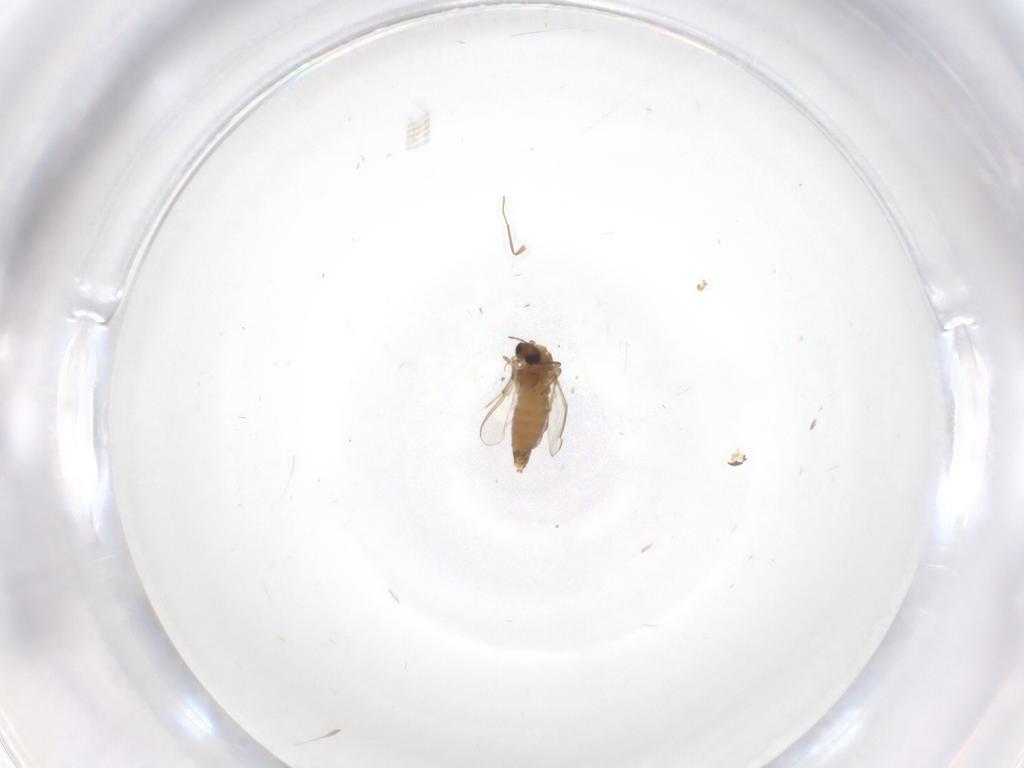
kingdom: Animalia
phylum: Arthropoda
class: Insecta
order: Diptera
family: Chironomidae
